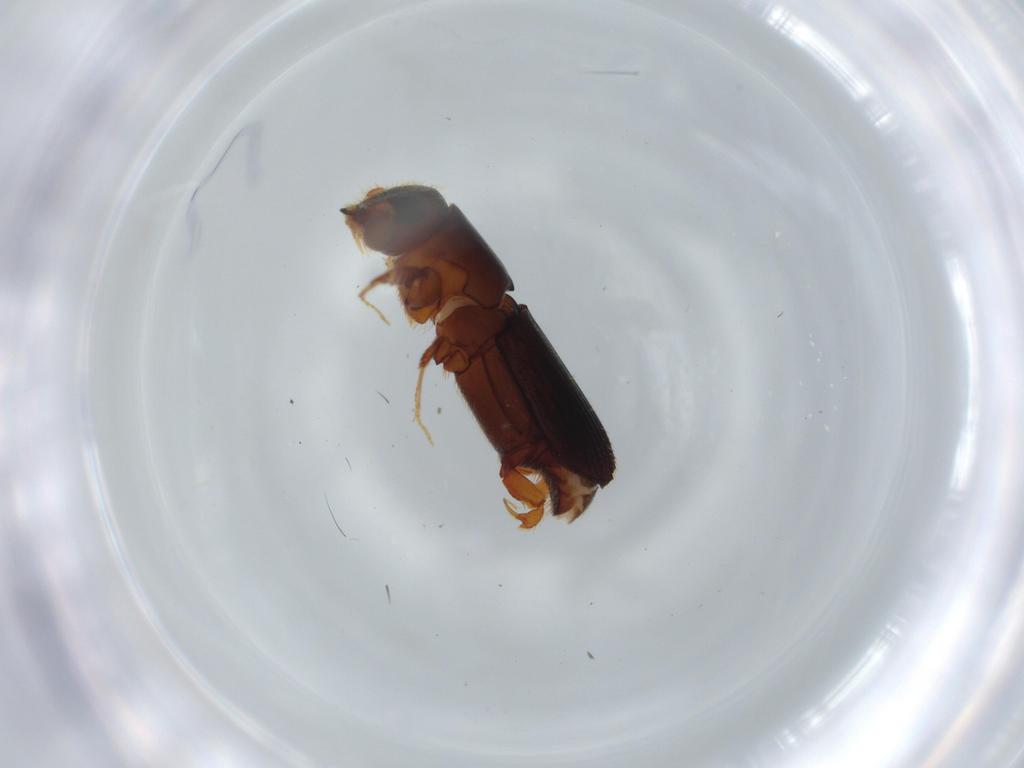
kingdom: Animalia
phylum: Arthropoda
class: Insecta
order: Coleoptera
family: Curculionidae
